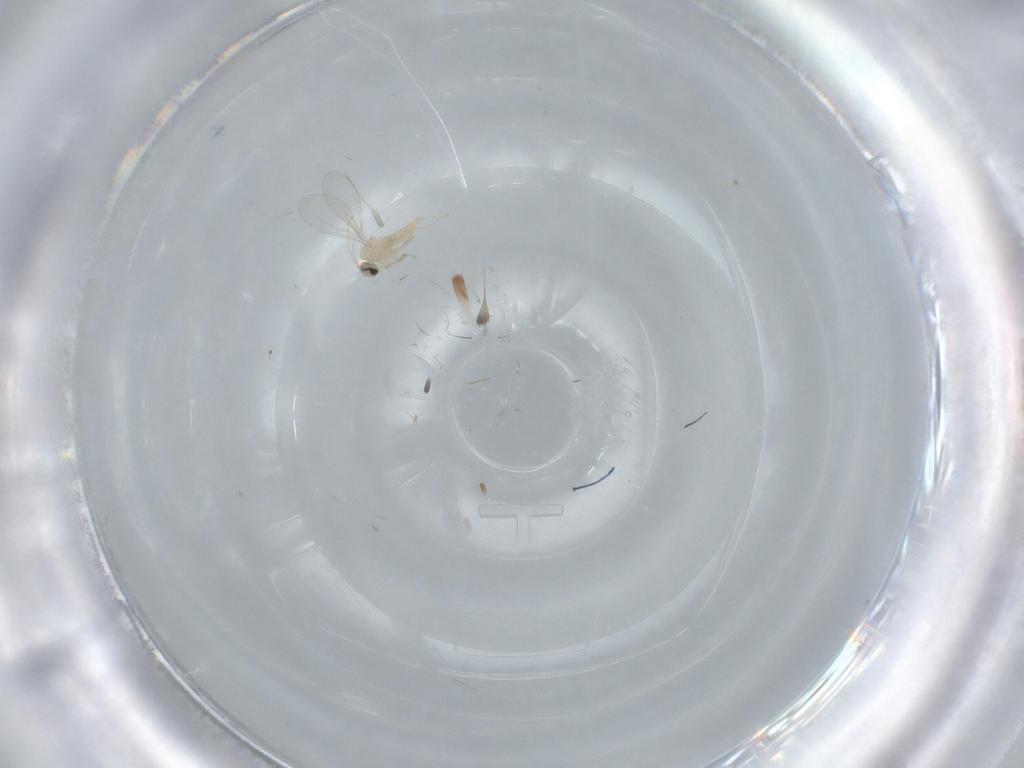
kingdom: Animalia
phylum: Arthropoda
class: Insecta
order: Diptera
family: Cecidomyiidae
